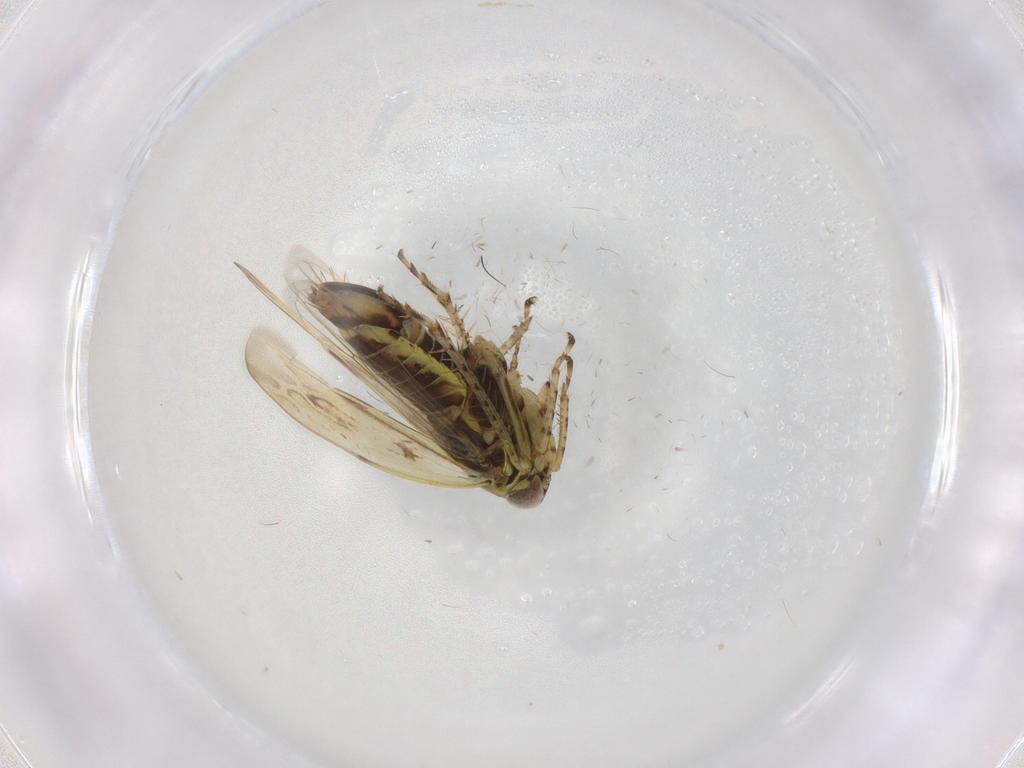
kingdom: Animalia
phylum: Arthropoda
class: Insecta
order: Hemiptera
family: Cicadellidae
